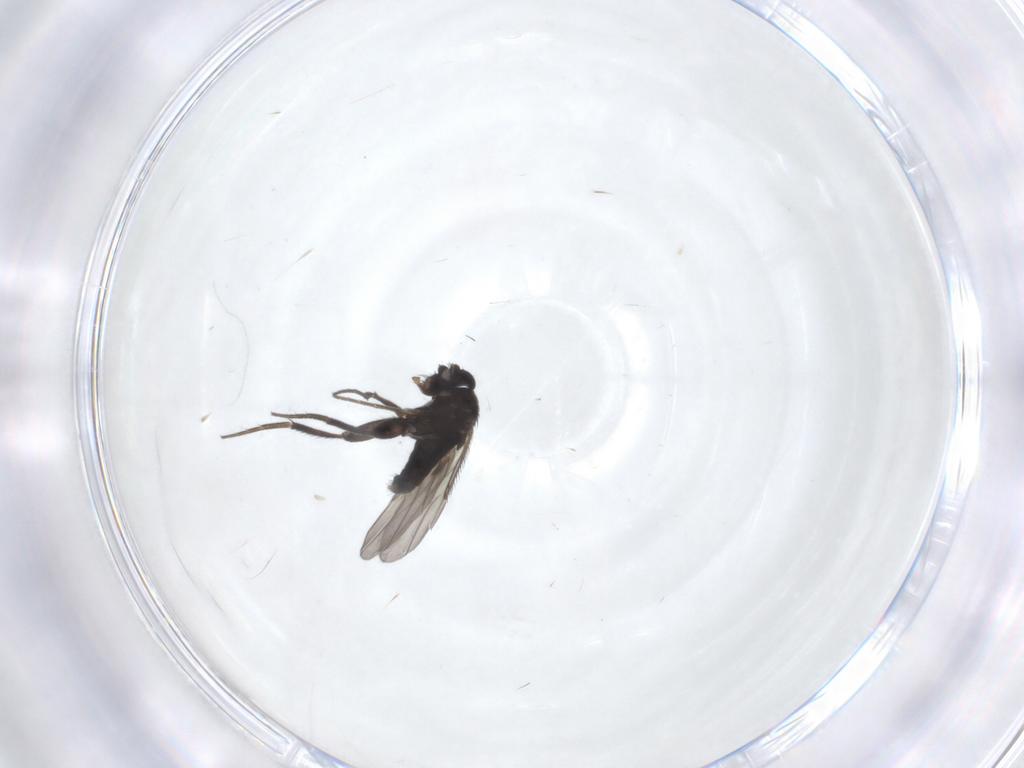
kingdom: Animalia
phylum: Arthropoda
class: Insecta
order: Diptera
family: Phoridae
